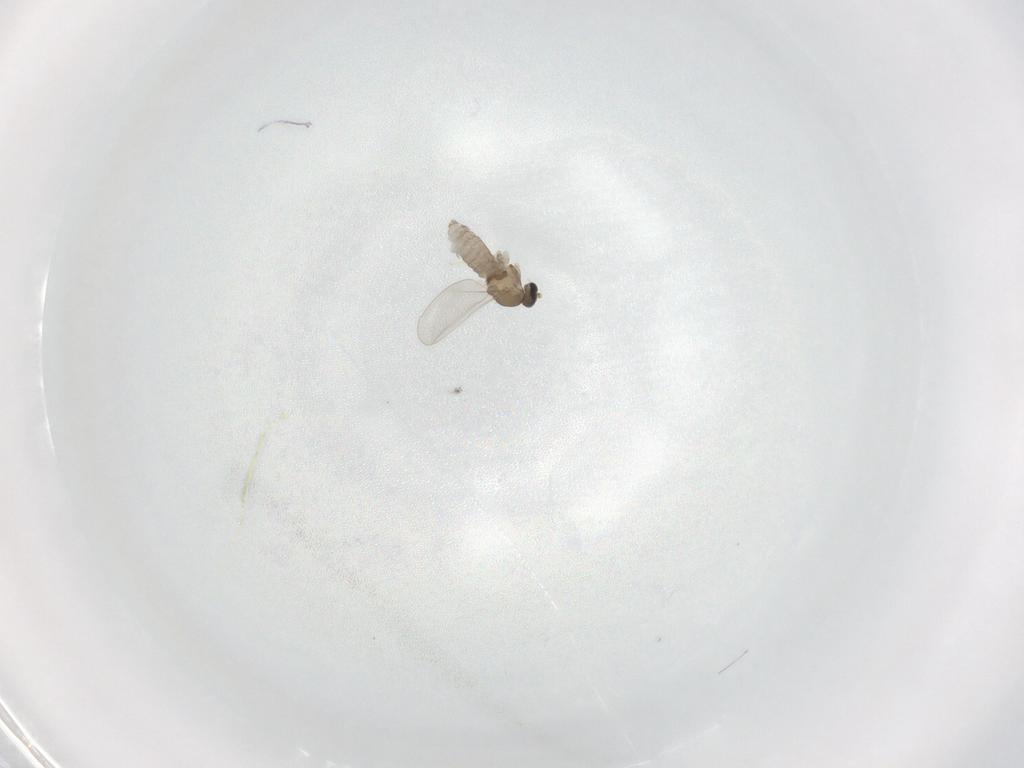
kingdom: Animalia
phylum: Arthropoda
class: Insecta
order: Diptera
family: Cecidomyiidae
